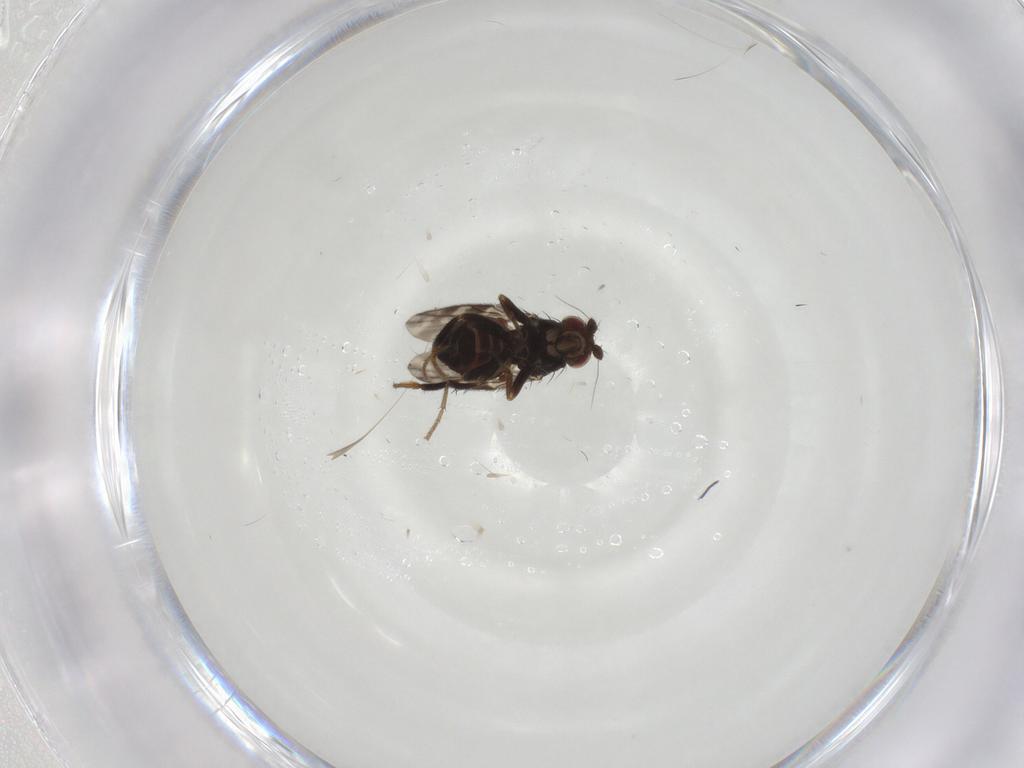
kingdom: Animalia
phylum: Arthropoda
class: Insecta
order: Diptera
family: Sphaeroceridae
